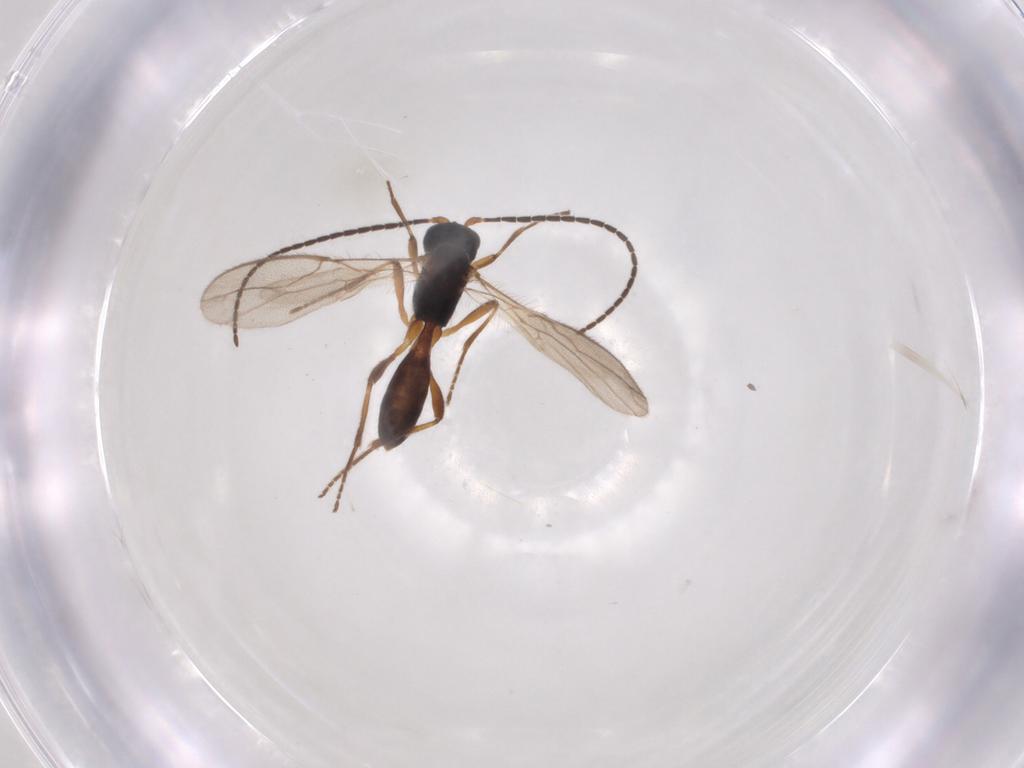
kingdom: Animalia
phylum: Arthropoda
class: Insecta
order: Hymenoptera
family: Braconidae
